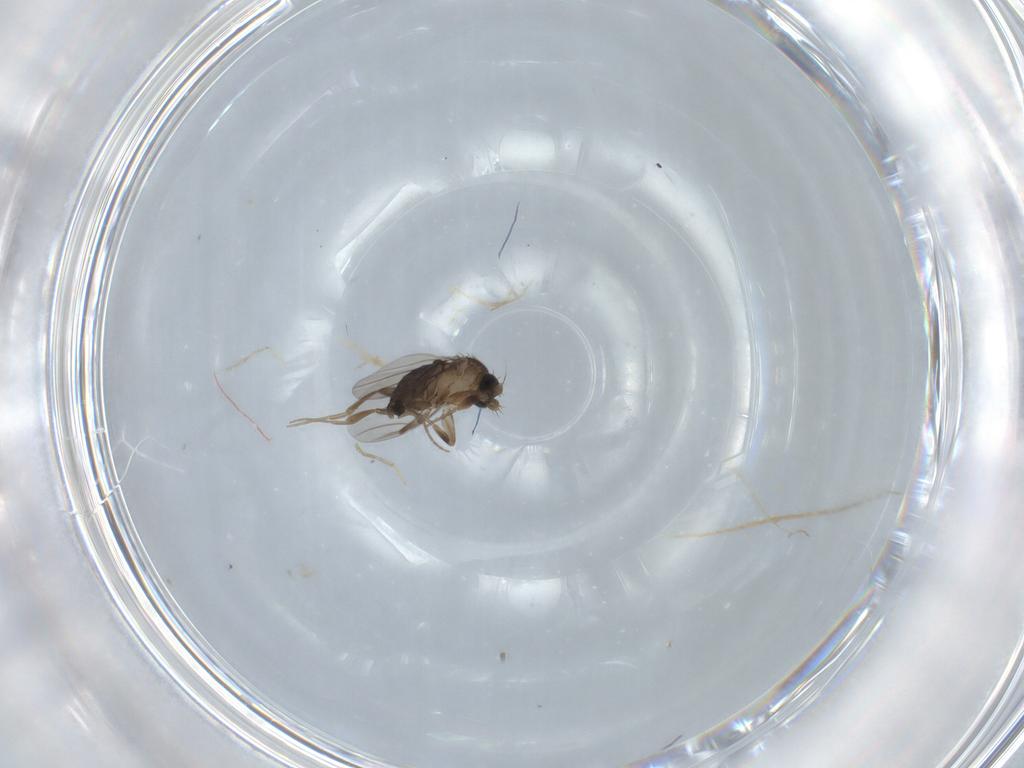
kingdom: Animalia
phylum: Arthropoda
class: Insecta
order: Diptera
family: Phoridae
